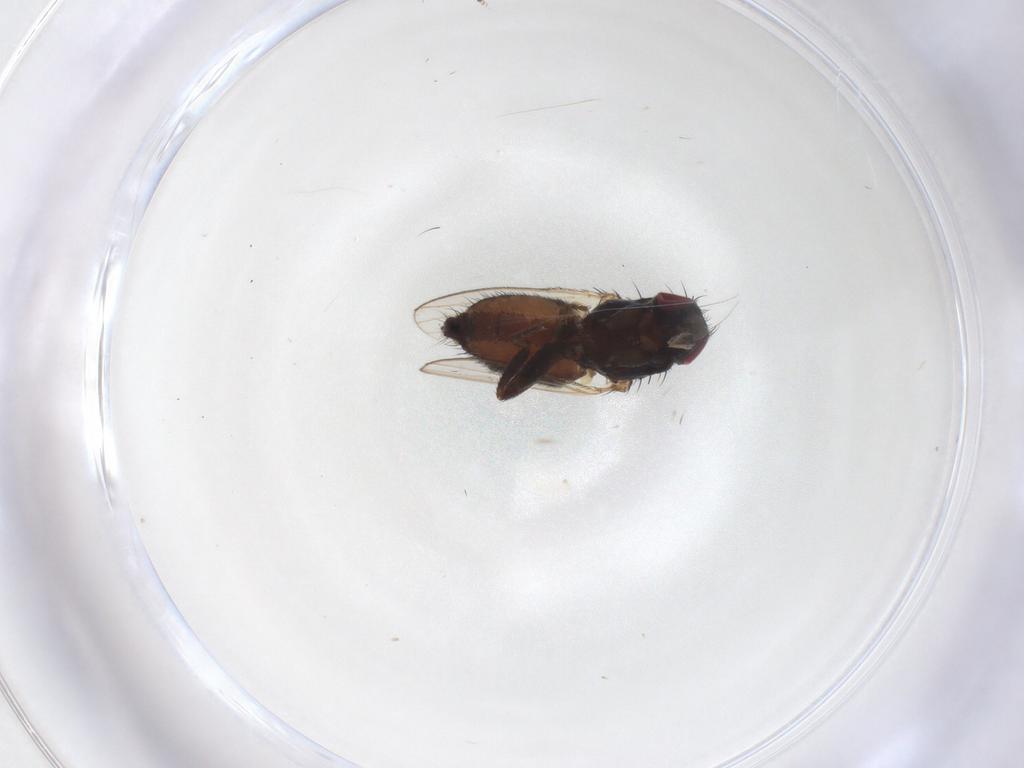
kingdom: Animalia
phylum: Arthropoda
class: Insecta
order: Diptera
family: Milichiidae
